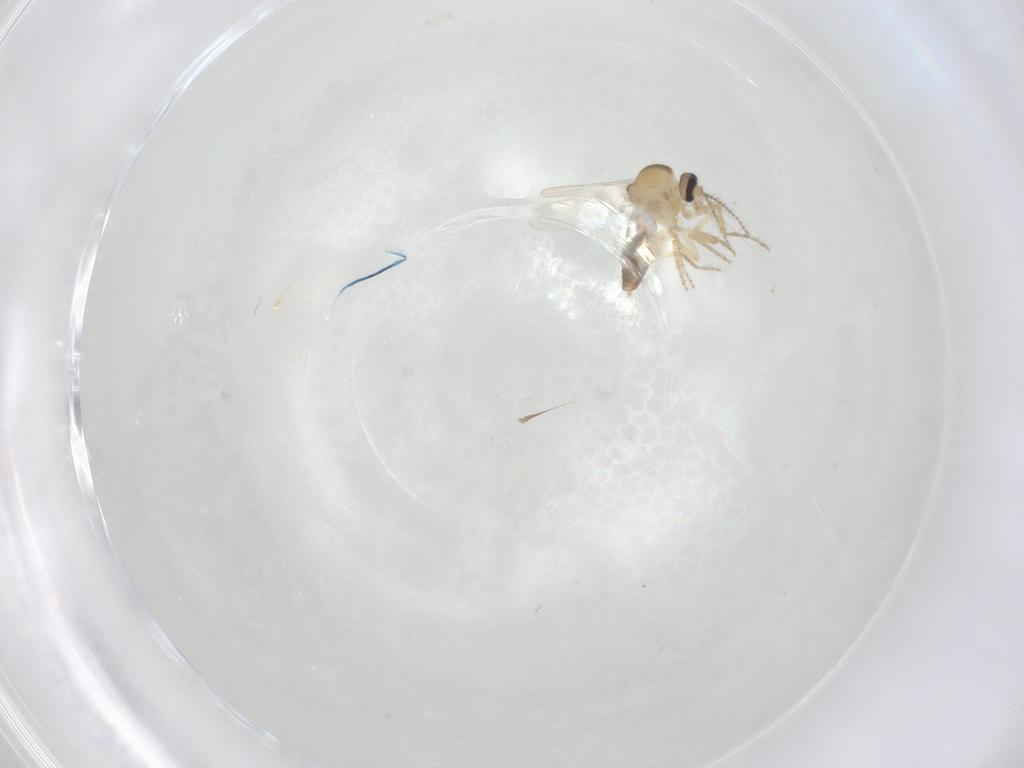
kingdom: Animalia
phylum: Arthropoda
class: Insecta
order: Diptera
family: Ceratopogonidae
